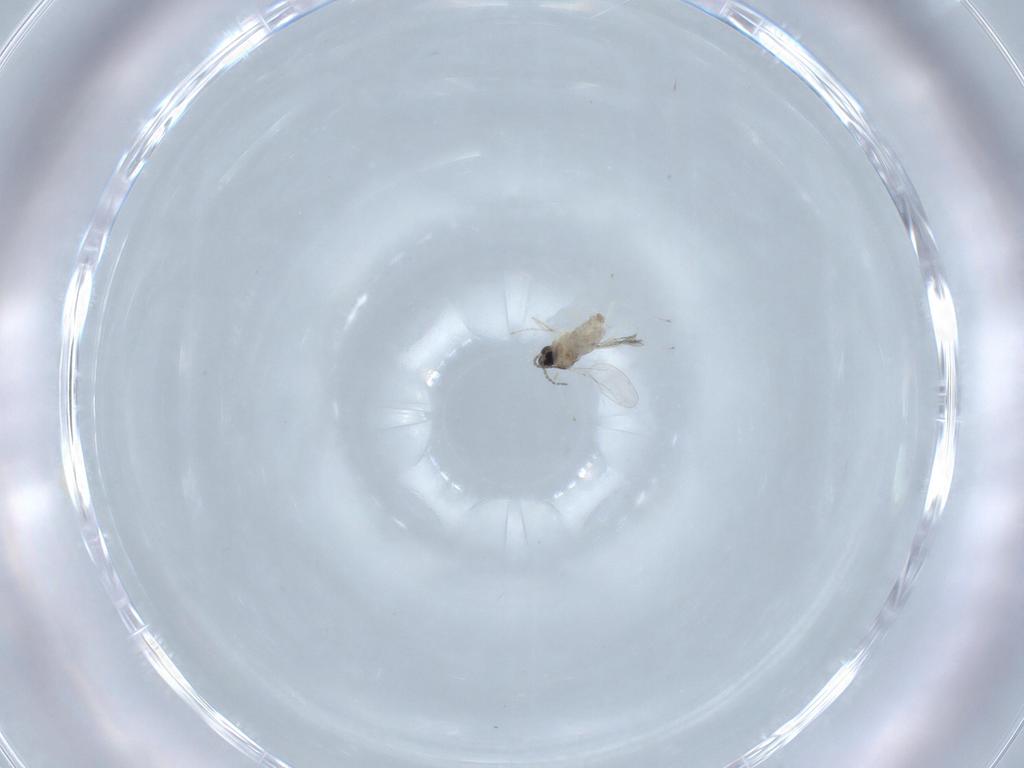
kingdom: Animalia
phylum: Arthropoda
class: Insecta
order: Diptera
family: Cecidomyiidae
